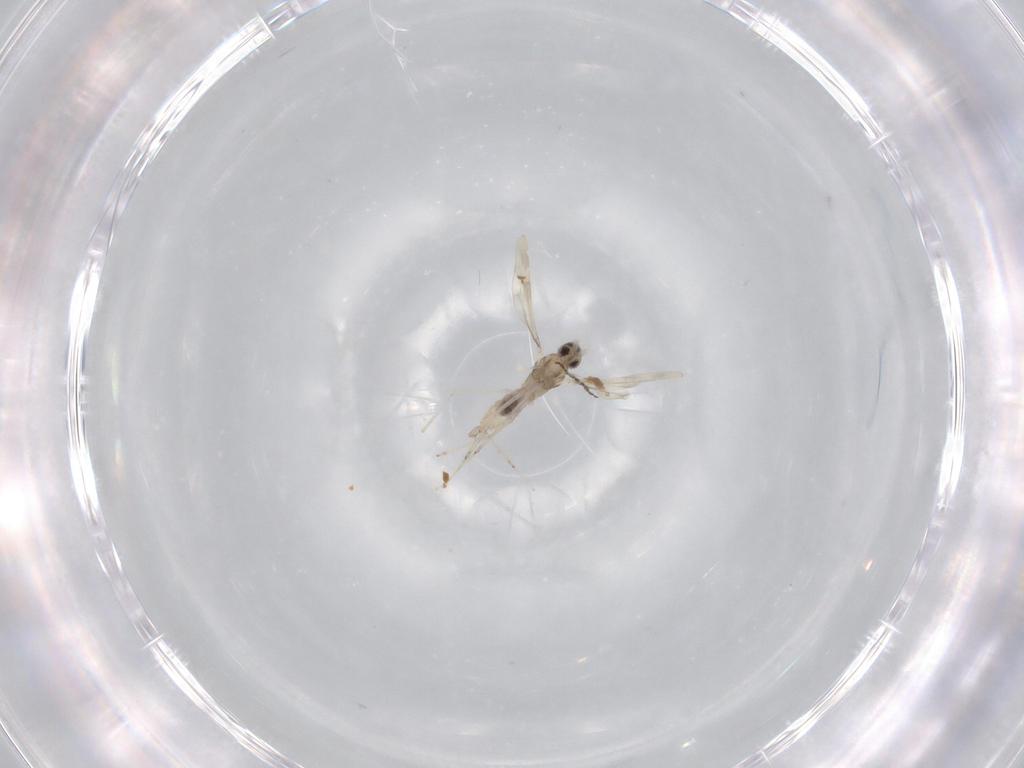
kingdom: Animalia
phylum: Arthropoda
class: Insecta
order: Diptera
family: Cecidomyiidae
